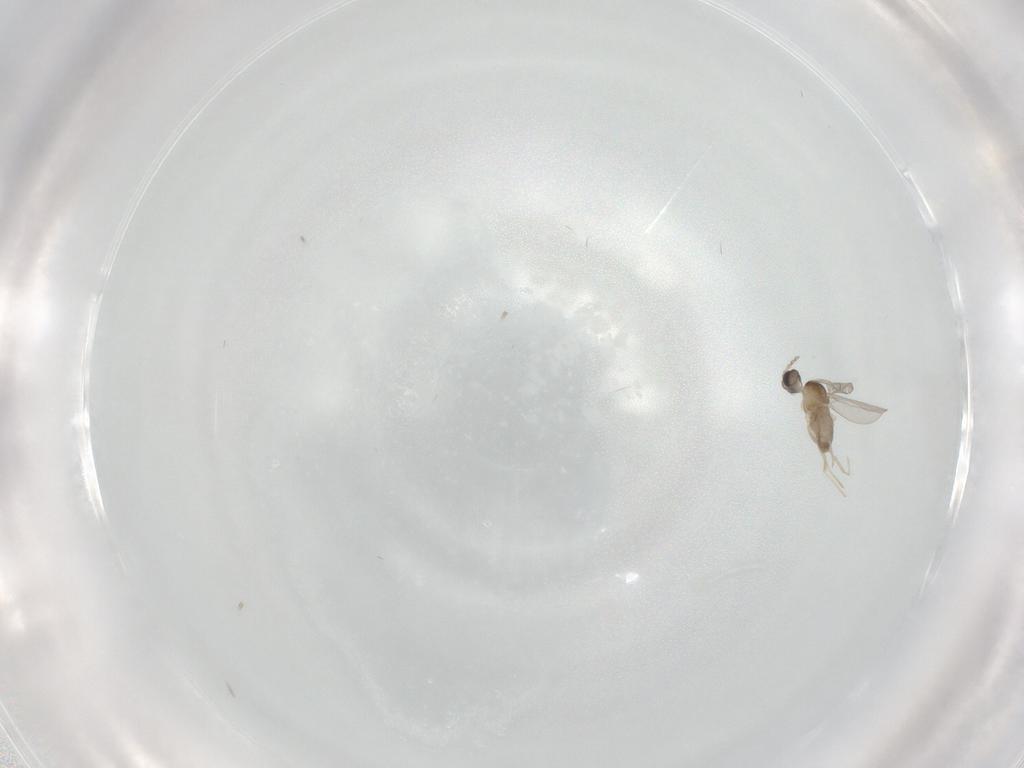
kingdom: Animalia
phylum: Arthropoda
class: Insecta
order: Diptera
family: Cecidomyiidae
